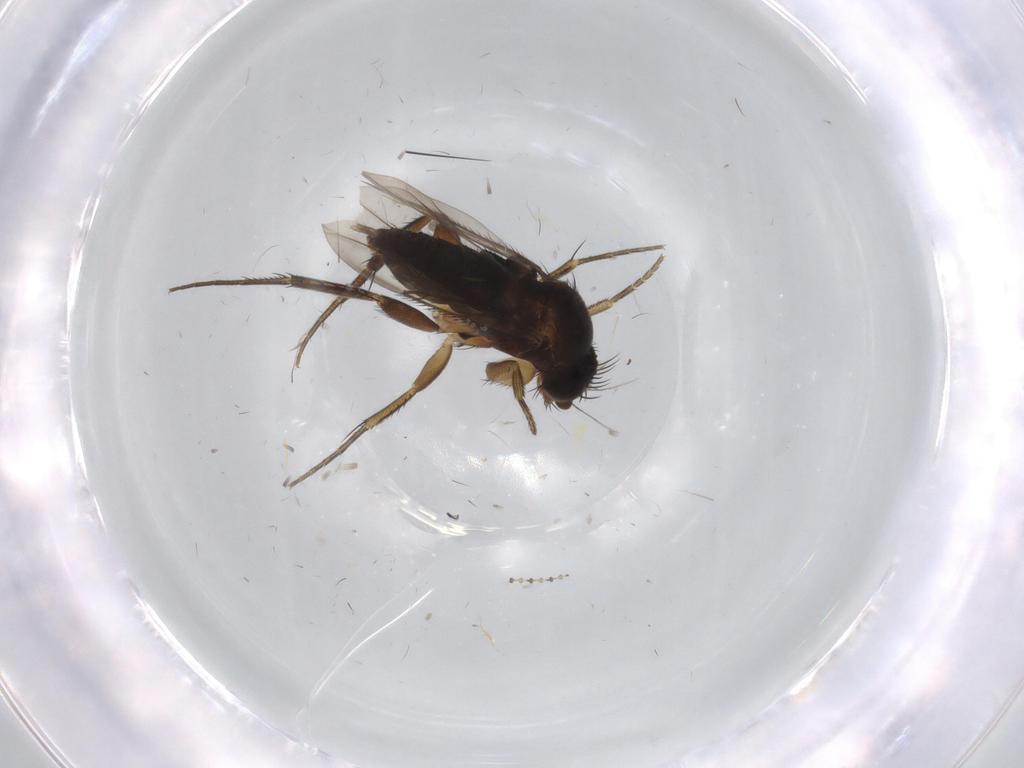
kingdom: Animalia
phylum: Arthropoda
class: Insecta
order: Diptera
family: Phoridae
